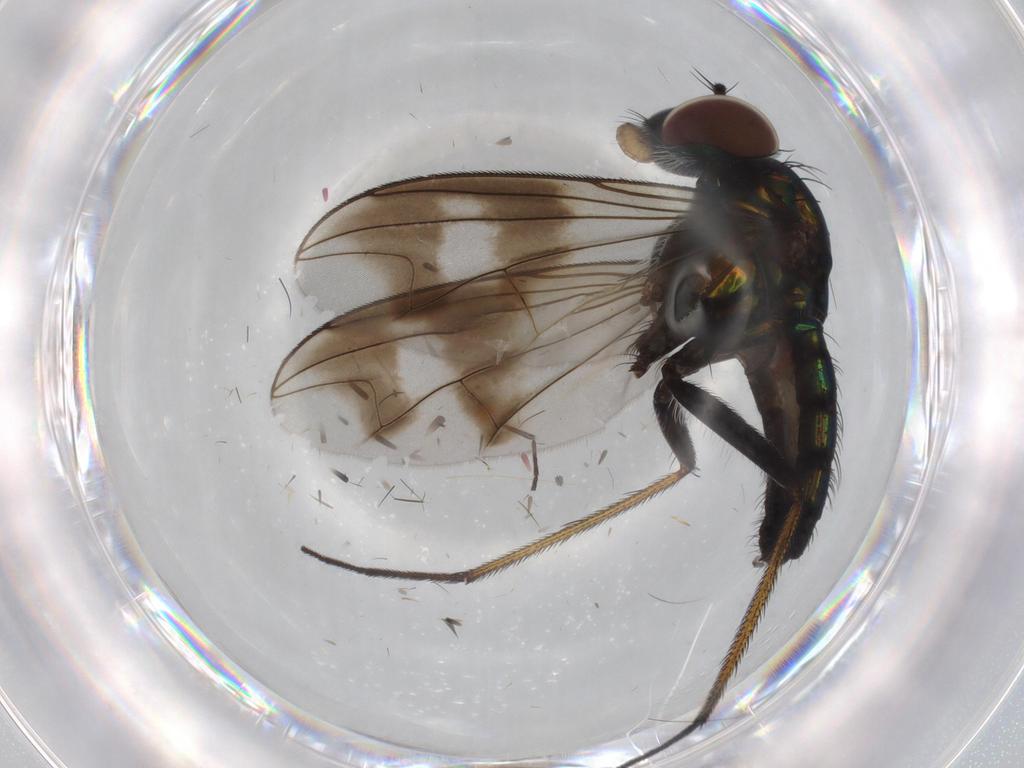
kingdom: Animalia
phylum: Arthropoda
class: Insecta
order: Diptera
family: Dolichopodidae
